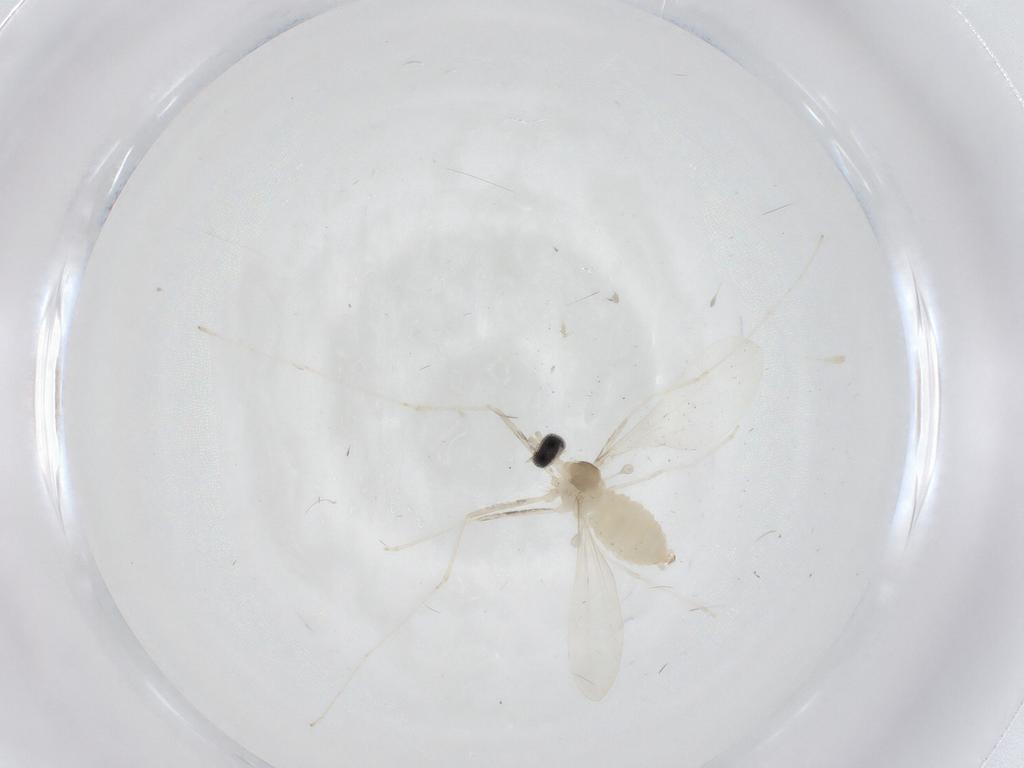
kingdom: Animalia
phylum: Arthropoda
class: Insecta
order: Diptera
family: Cecidomyiidae
